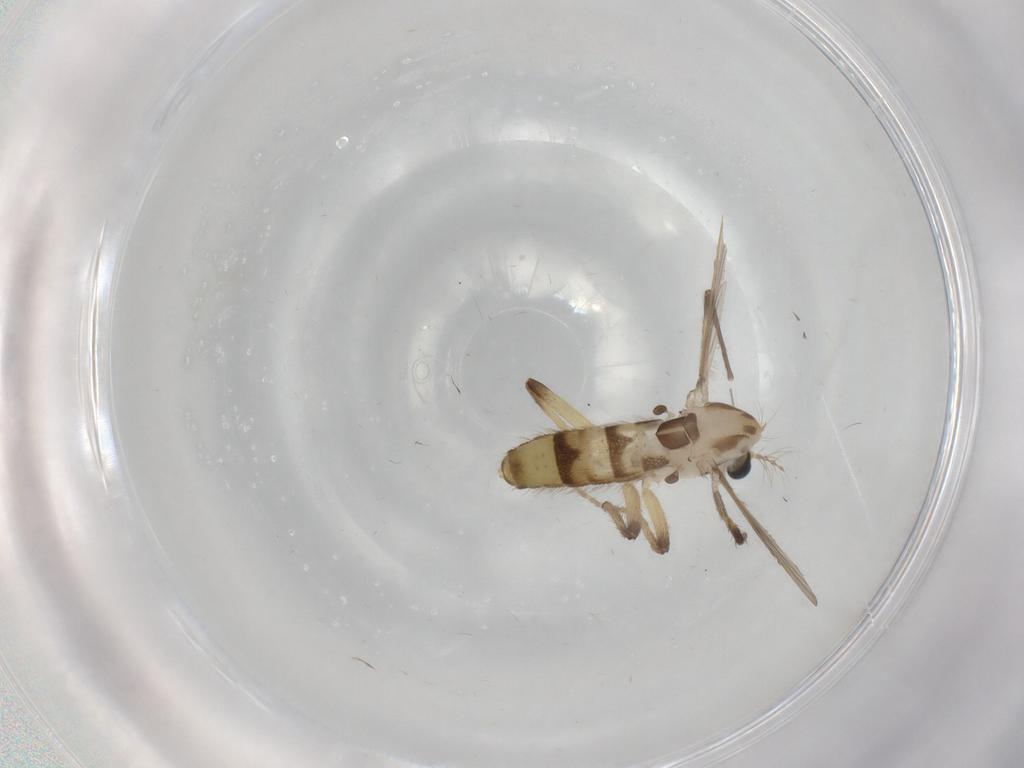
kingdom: Animalia
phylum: Arthropoda
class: Insecta
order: Diptera
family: Chironomidae
